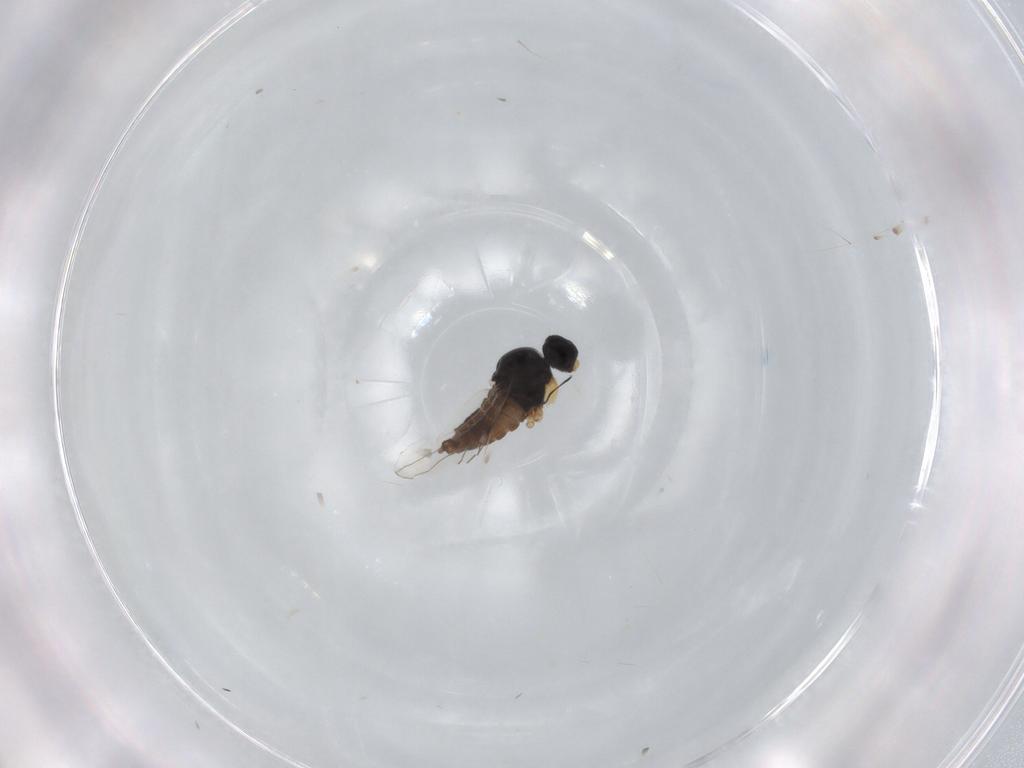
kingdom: Animalia
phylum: Arthropoda
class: Insecta
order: Diptera
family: Hybotidae
